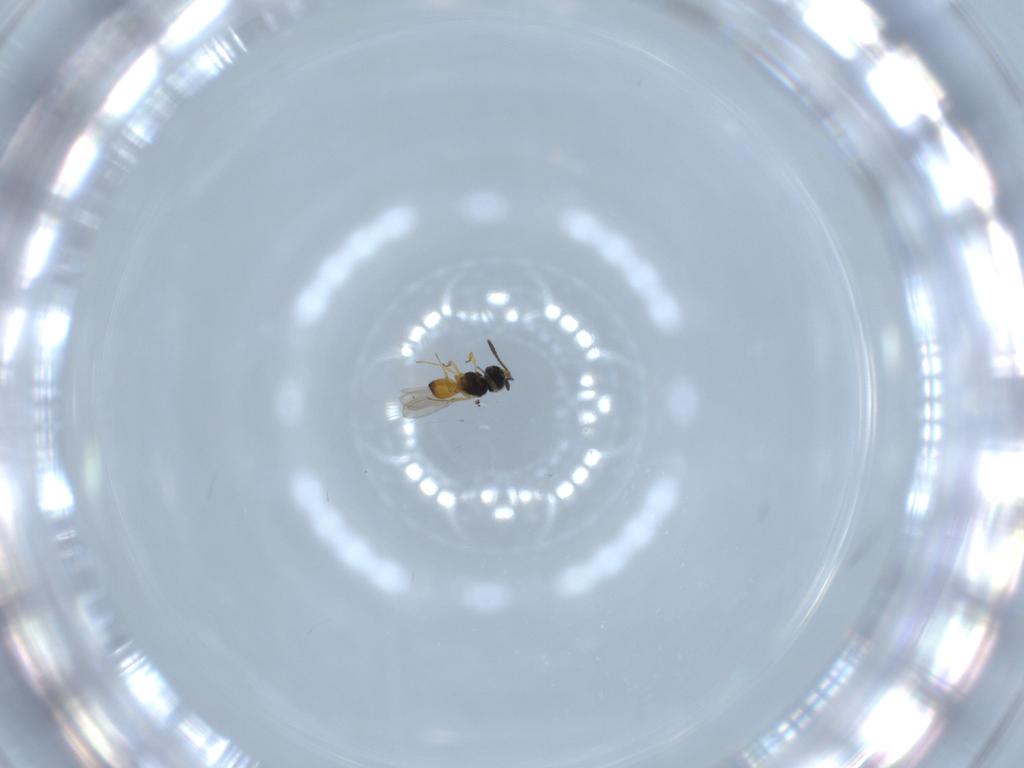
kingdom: Animalia
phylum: Arthropoda
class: Insecta
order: Hymenoptera
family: Scelionidae
